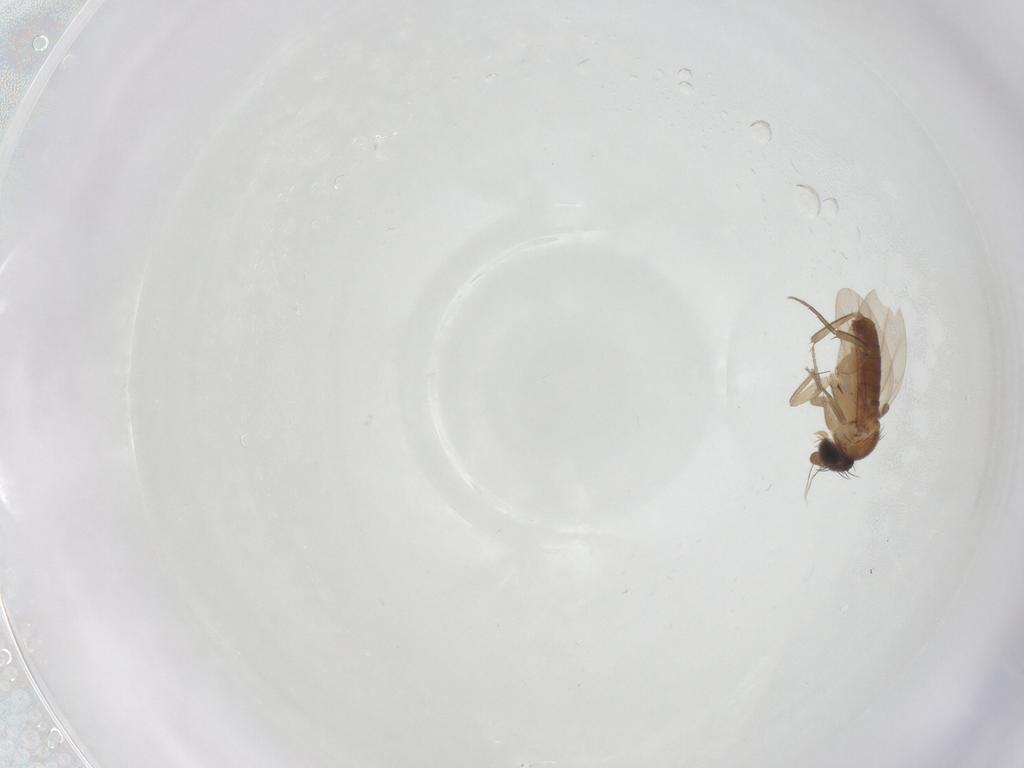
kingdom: Animalia
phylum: Arthropoda
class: Insecta
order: Diptera
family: Phoridae
